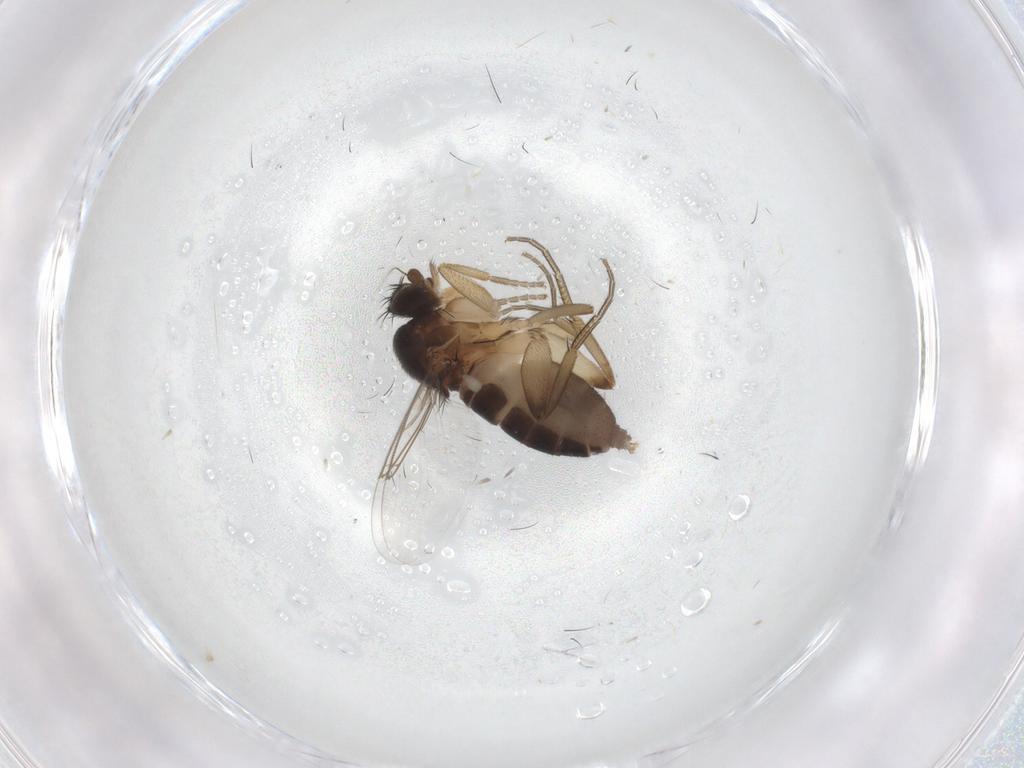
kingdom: Animalia
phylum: Arthropoda
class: Insecta
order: Diptera
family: Phoridae
